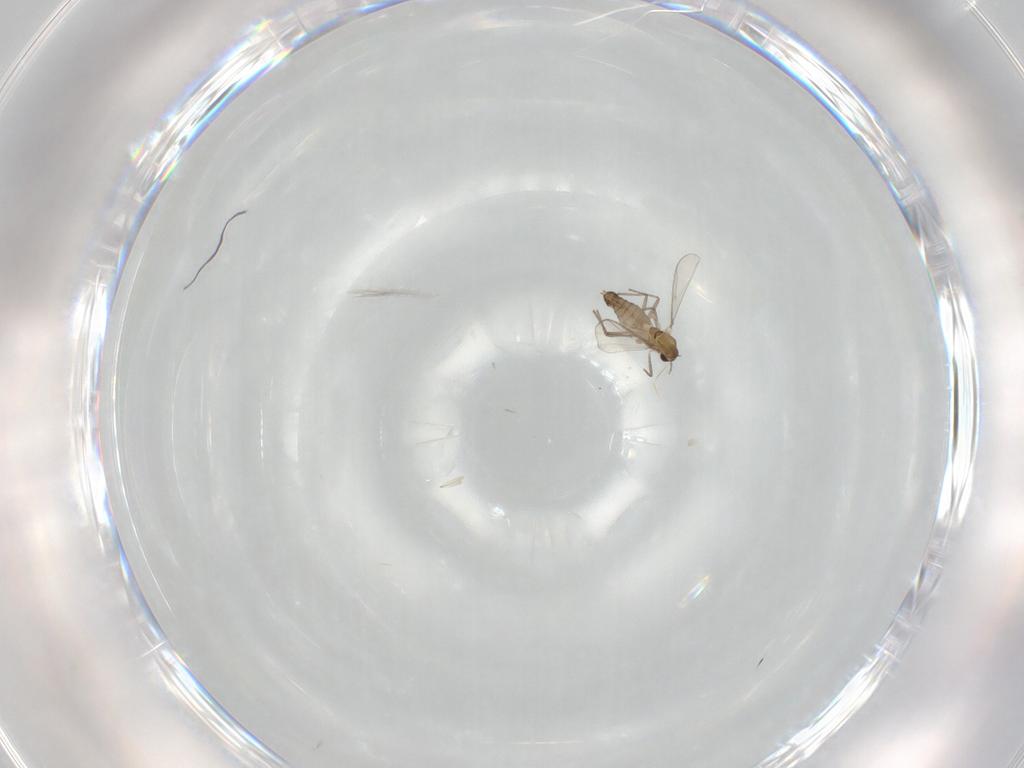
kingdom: Animalia
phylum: Arthropoda
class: Insecta
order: Diptera
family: Chironomidae
